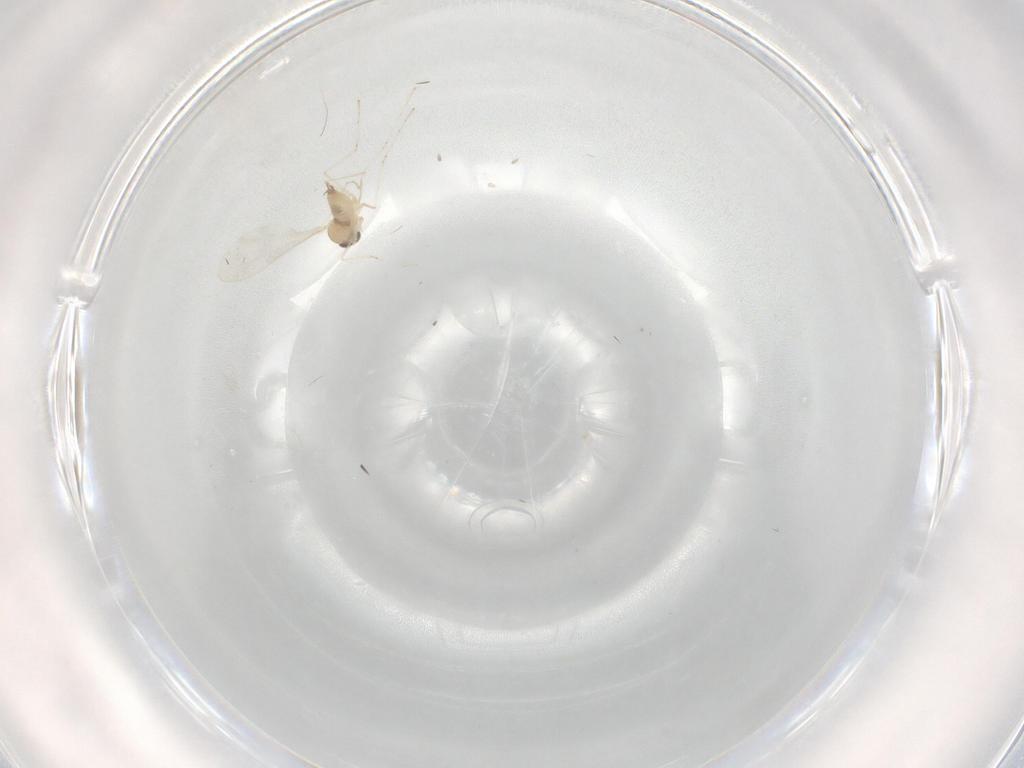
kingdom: Animalia
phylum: Arthropoda
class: Insecta
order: Diptera
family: Cecidomyiidae
